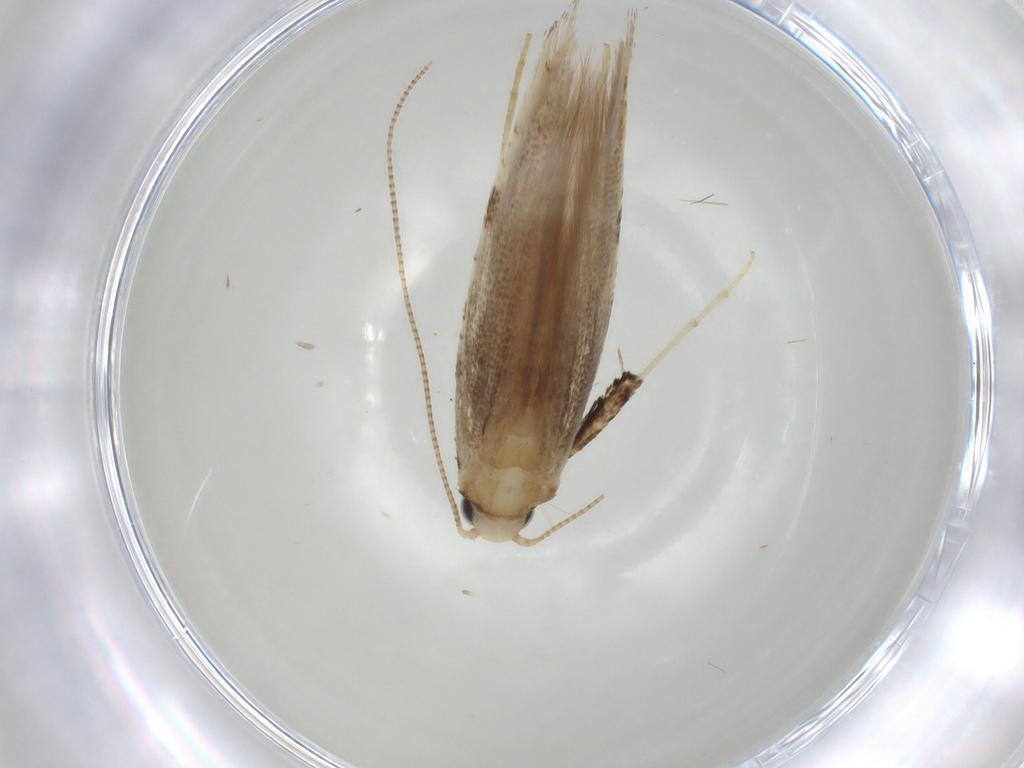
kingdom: Animalia
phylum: Arthropoda
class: Insecta
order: Lepidoptera
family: Gracillariidae
